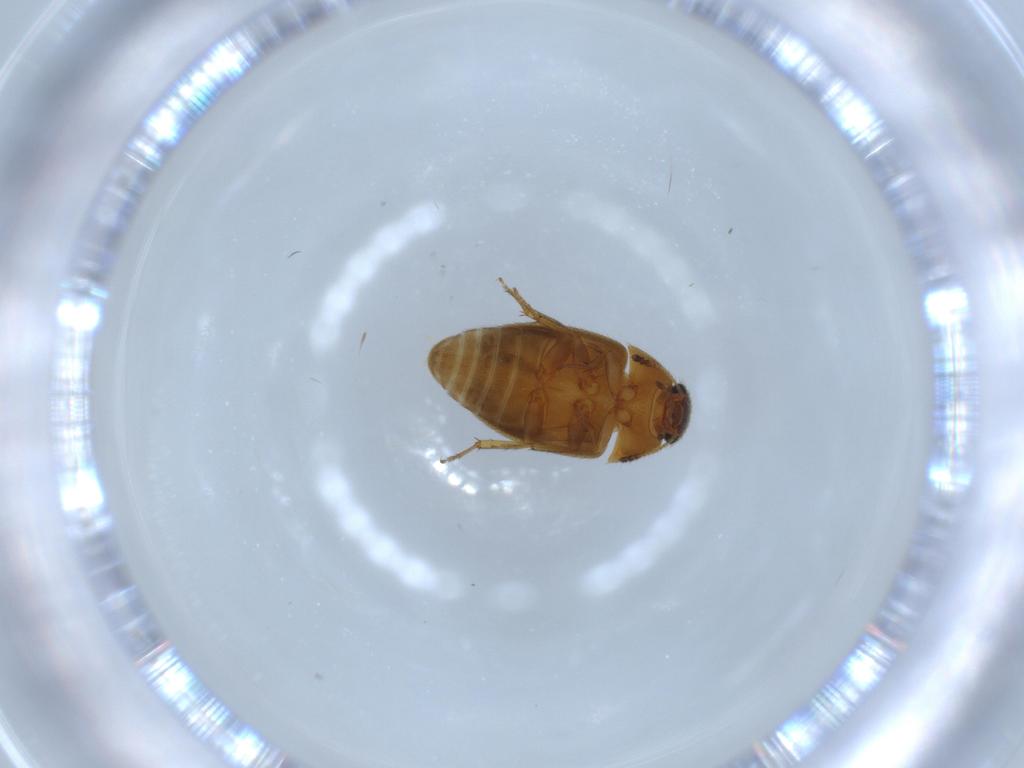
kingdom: Animalia
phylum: Arthropoda
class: Insecta
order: Coleoptera
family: Mycetophagidae
